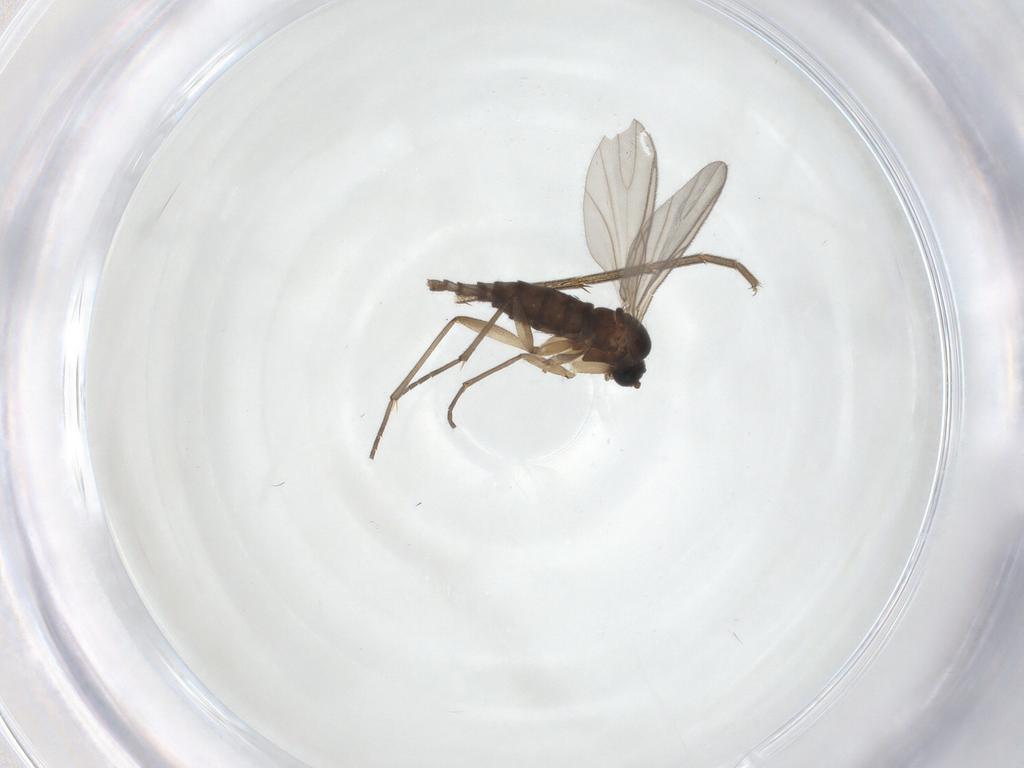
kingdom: Animalia
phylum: Arthropoda
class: Insecta
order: Diptera
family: Sciaridae
